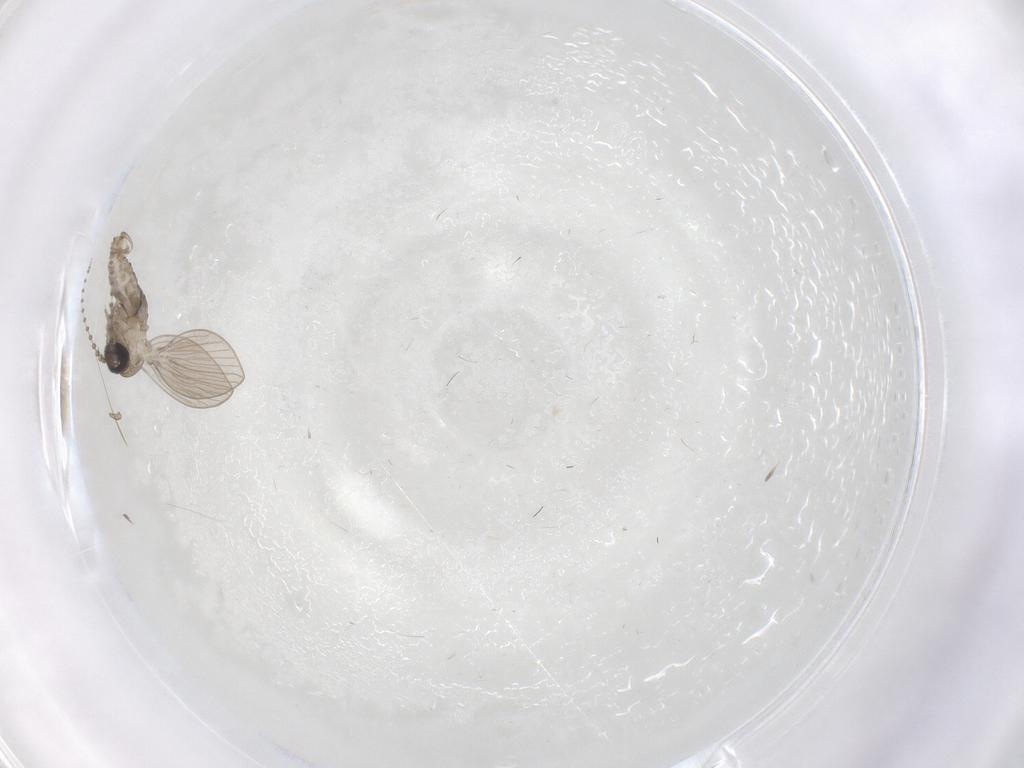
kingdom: Animalia
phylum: Arthropoda
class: Insecta
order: Diptera
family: Psychodidae
